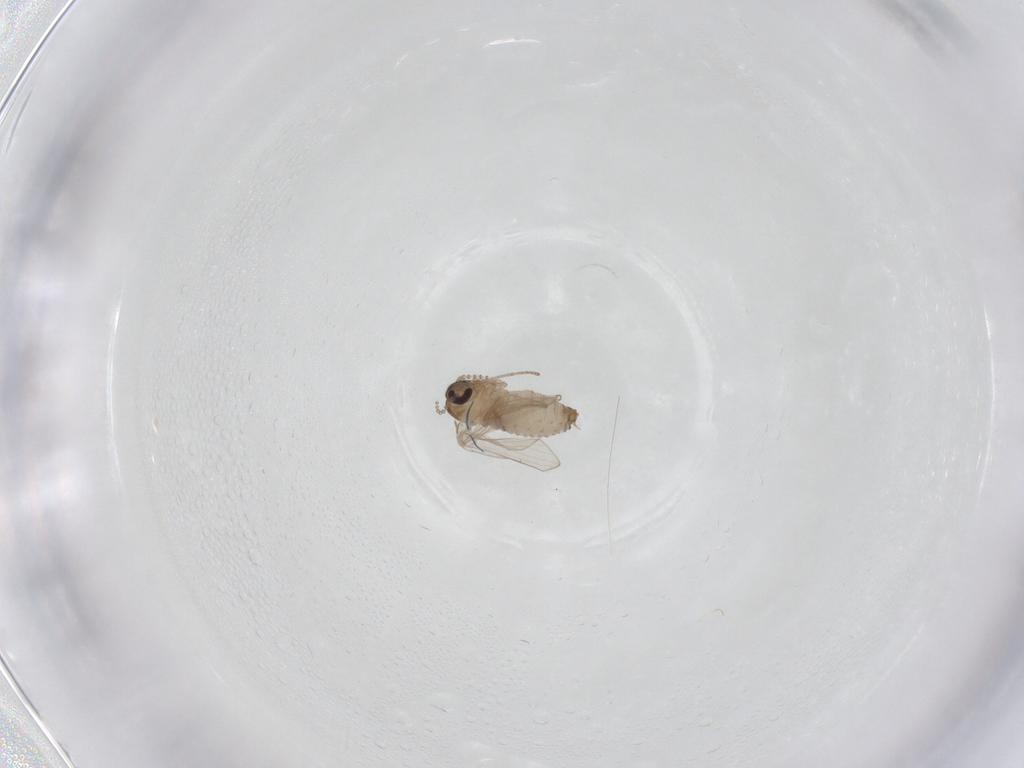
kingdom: Animalia
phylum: Arthropoda
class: Insecta
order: Diptera
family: Psychodidae
